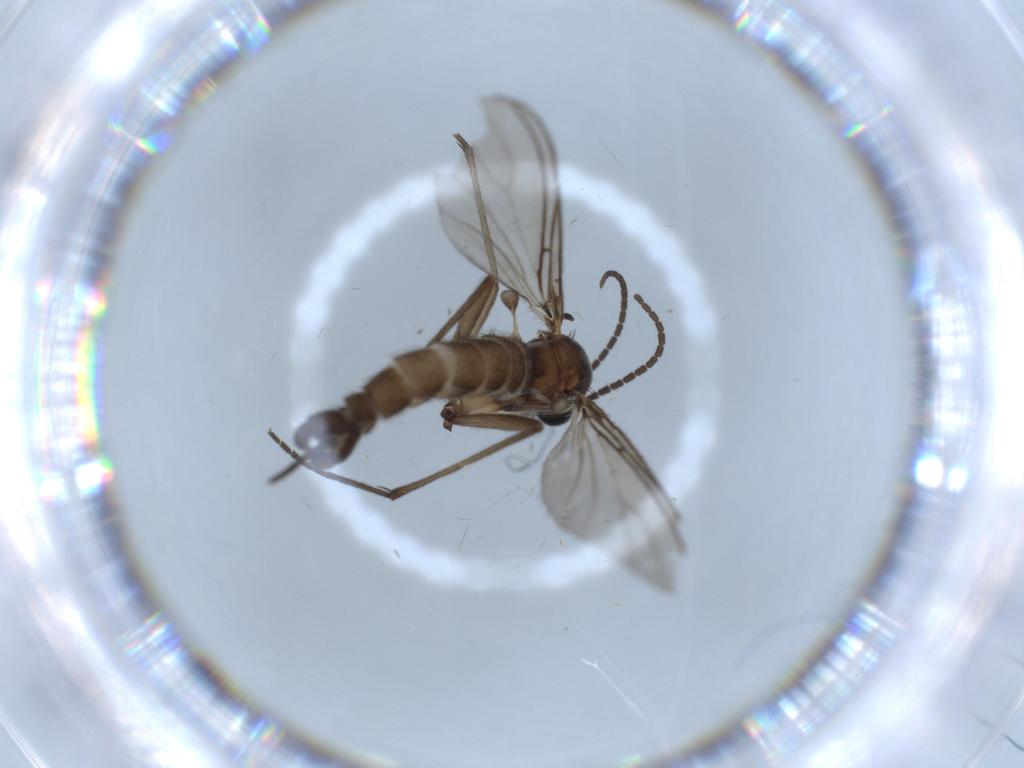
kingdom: Animalia
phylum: Arthropoda
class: Insecta
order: Diptera
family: Sciaridae
